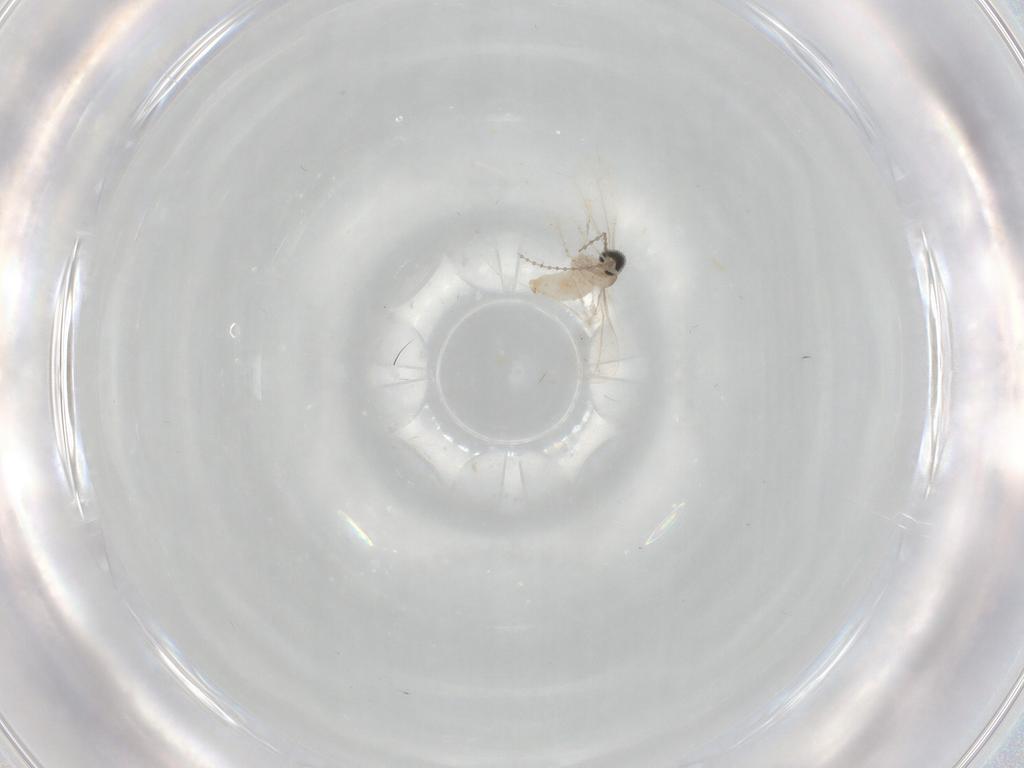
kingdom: Animalia
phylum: Arthropoda
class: Insecta
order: Diptera
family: Cecidomyiidae
